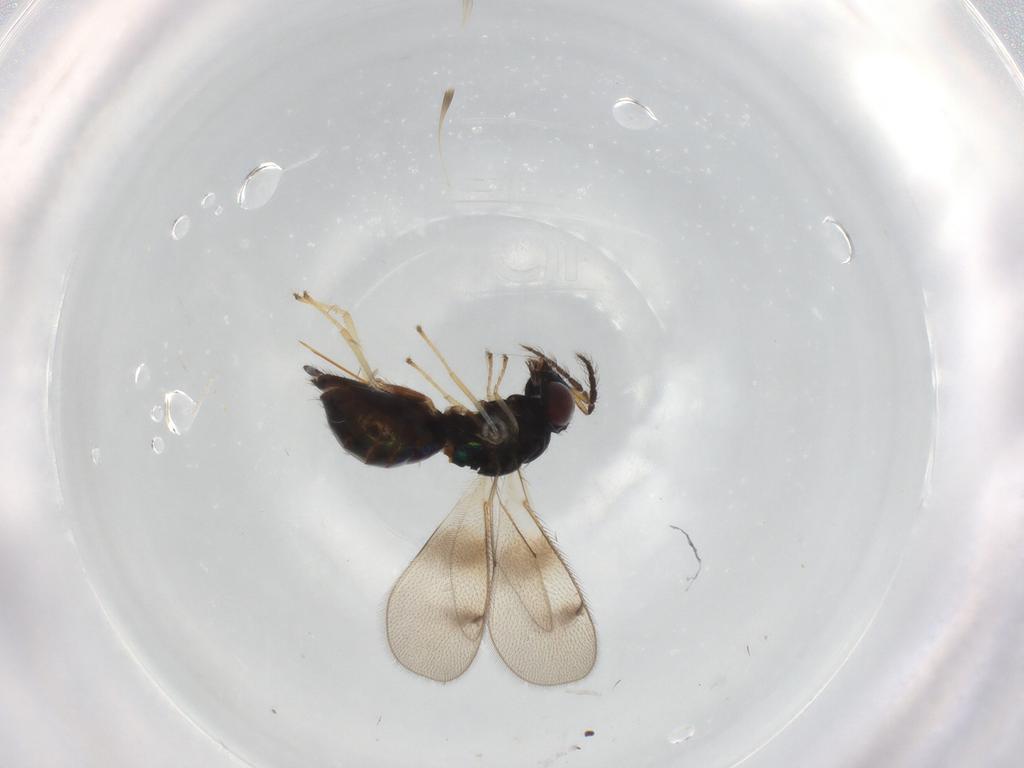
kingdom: Animalia
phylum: Arthropoda
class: Insecta
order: Hymenoptera
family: Eulophidae
